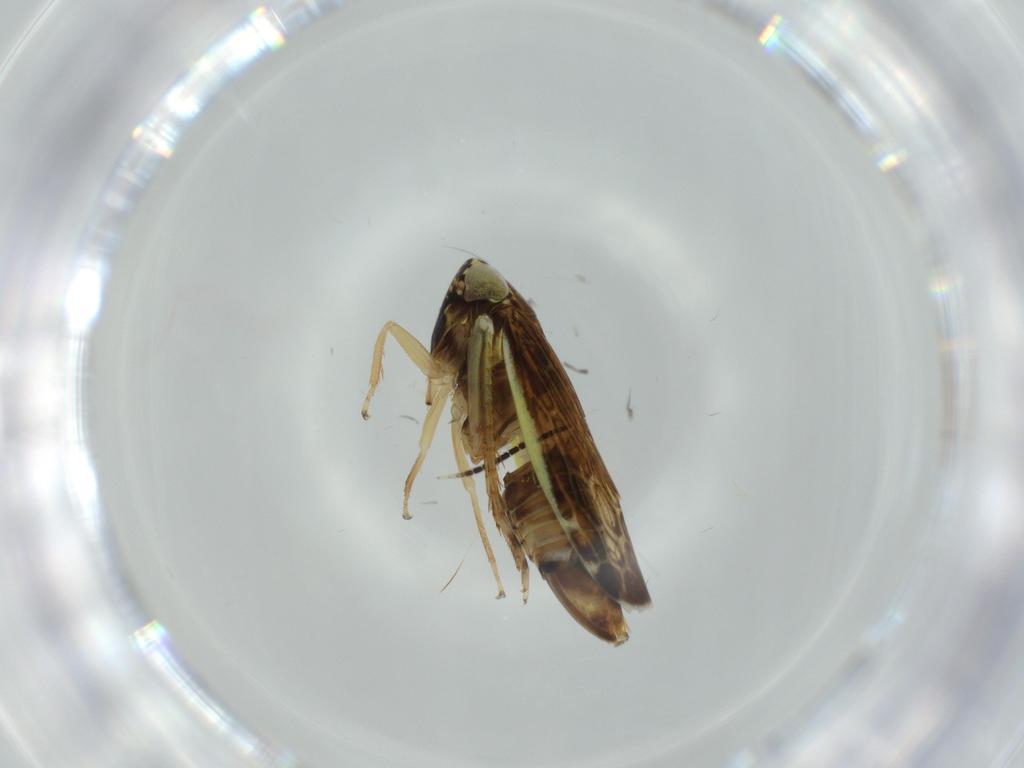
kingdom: Animalia
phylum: Arthropoda
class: Insecta
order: Hemiptera
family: Cicadellidae
